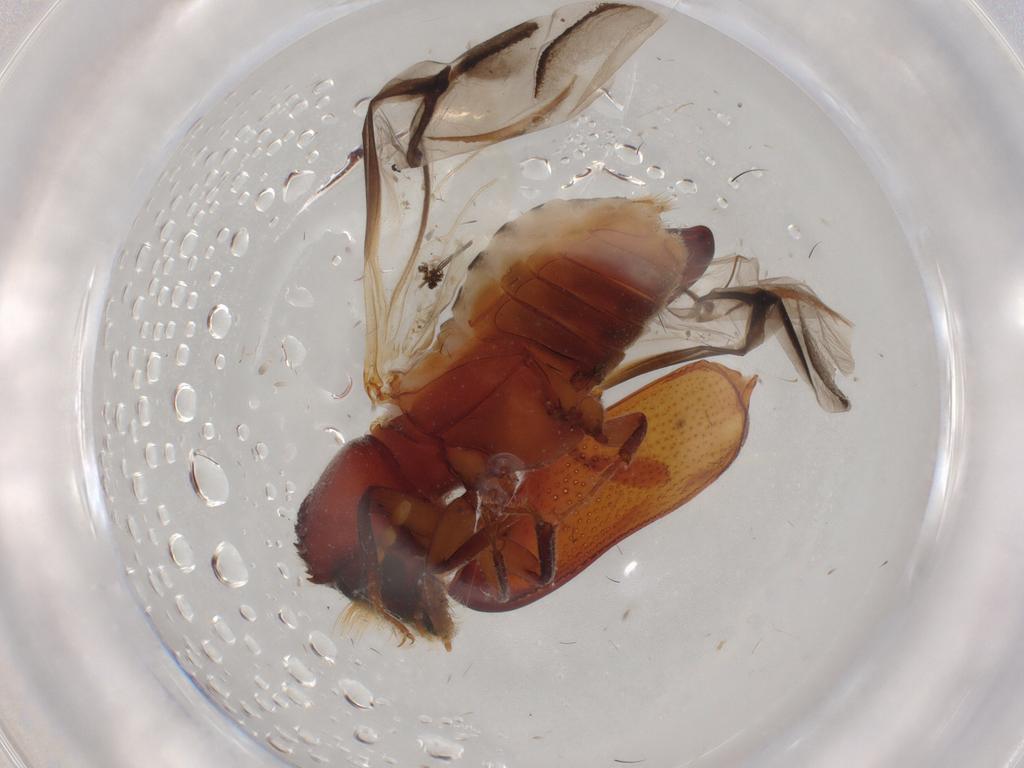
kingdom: Animalia
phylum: Arthropoda
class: Insecta
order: Coleoptera
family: Bostrichidae
